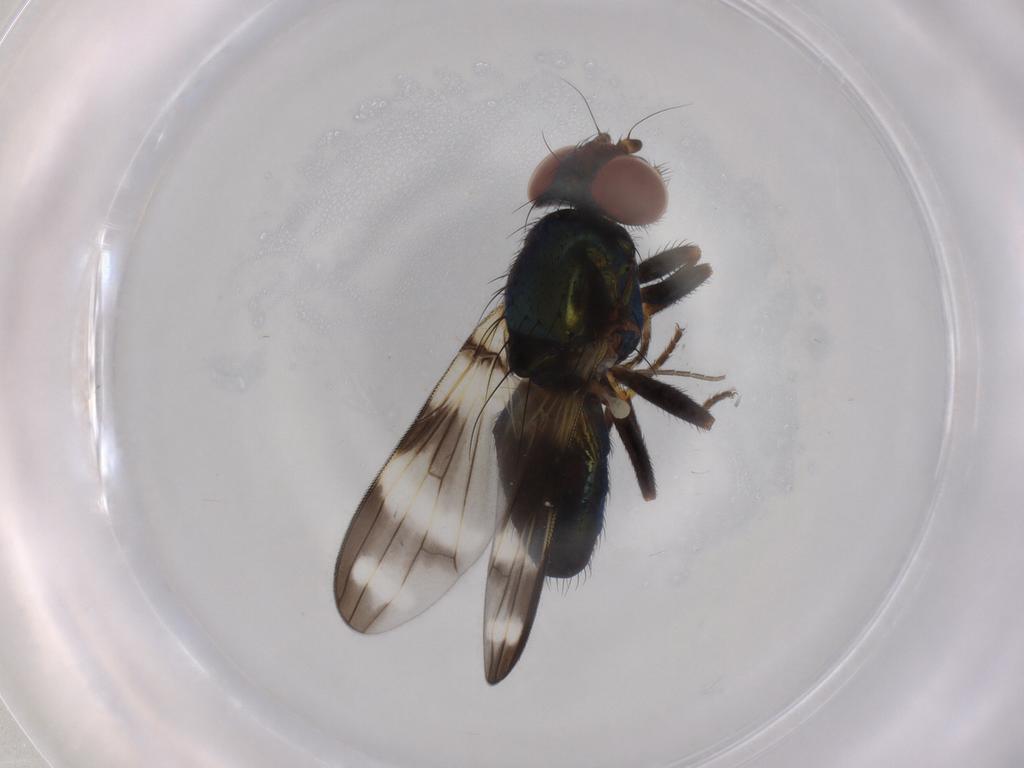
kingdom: Animalia
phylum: Arthropoda
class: Insecta
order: Diptera
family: Ulidiidae
